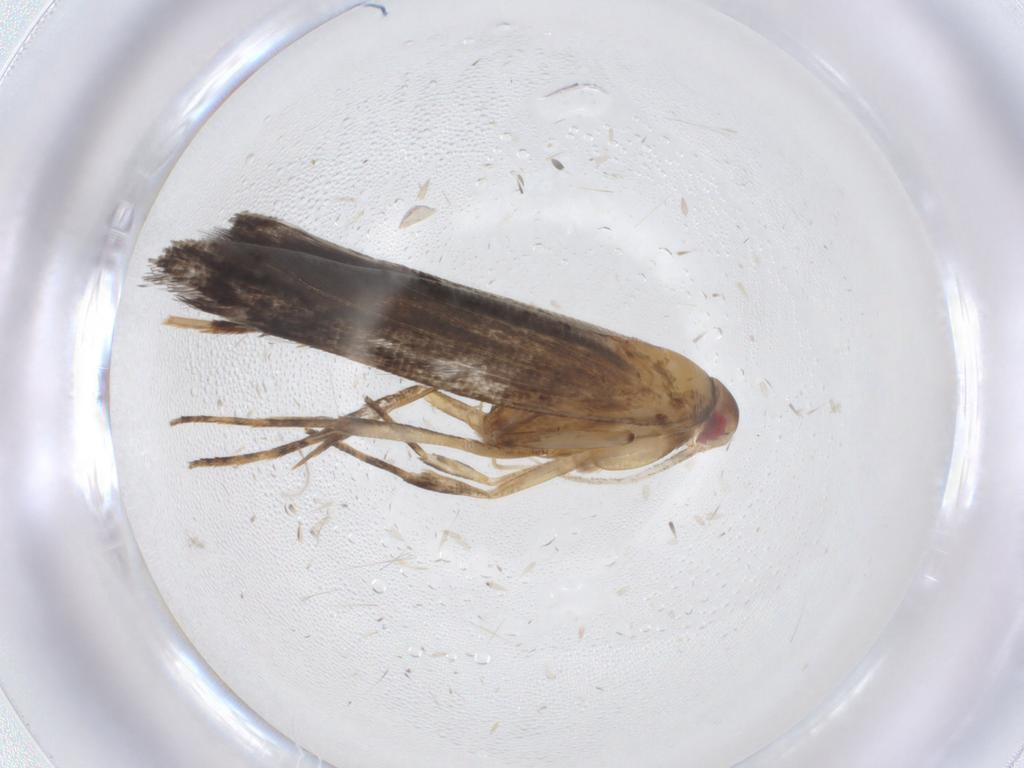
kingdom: Animalia
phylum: Arthropoda
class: Insecta
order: Lepidoptera
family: Cosmopterigidae
